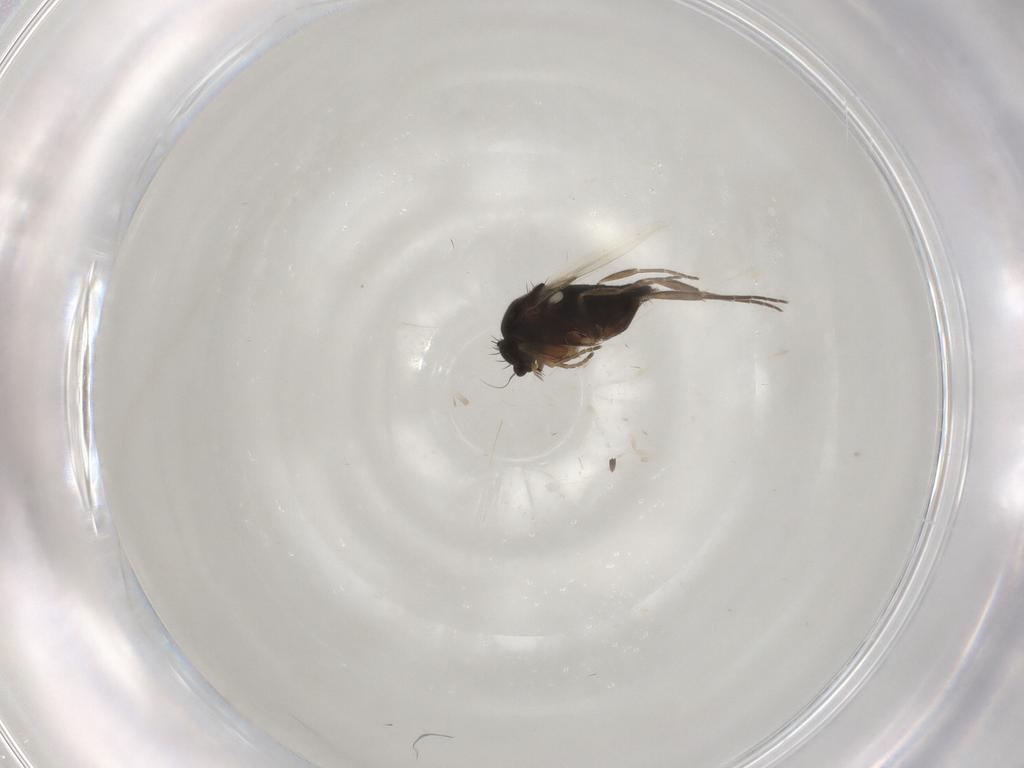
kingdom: Animalia
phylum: Arthropoda
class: Insecta
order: Diptera
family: Phoridae
